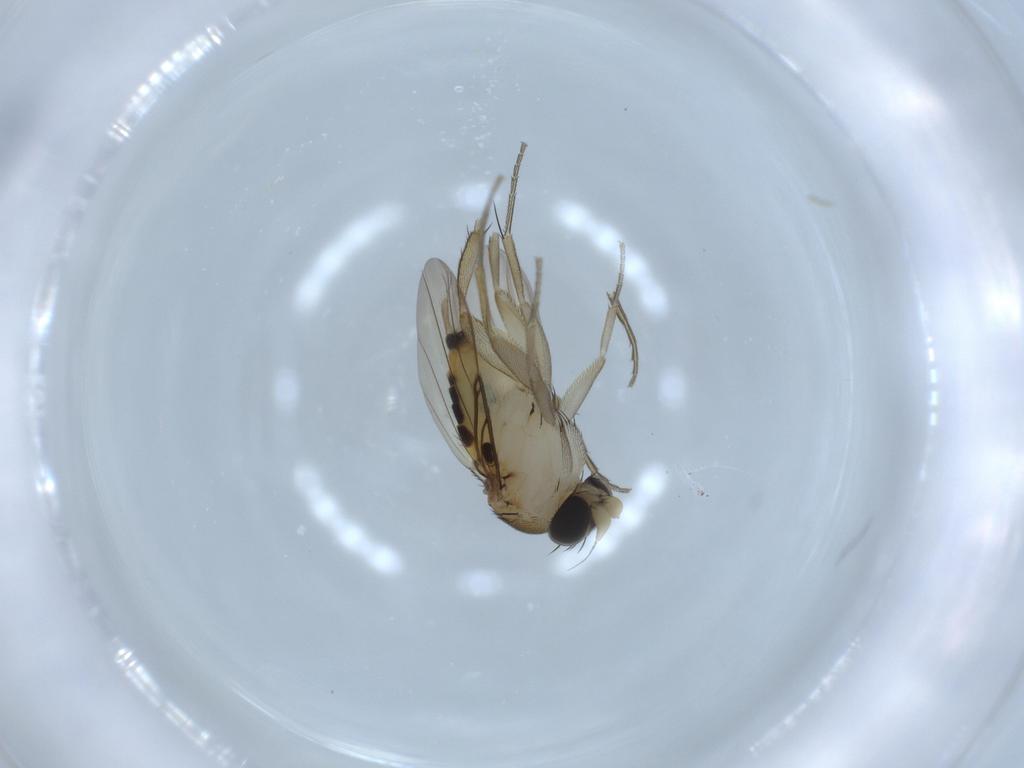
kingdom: Animalia
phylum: Arthropoda
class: Insecta
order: Diptera
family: Phoridae
